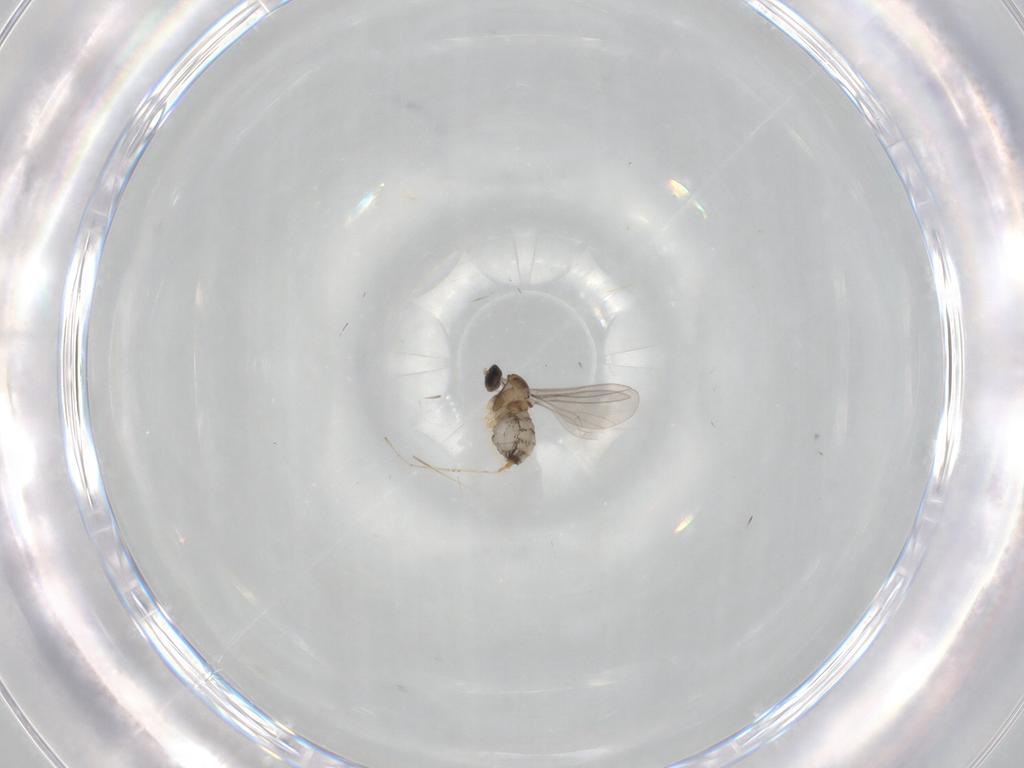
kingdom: Animalia
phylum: Arthropoda
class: Insecta
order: Diptera
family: Cecidomyiidae
